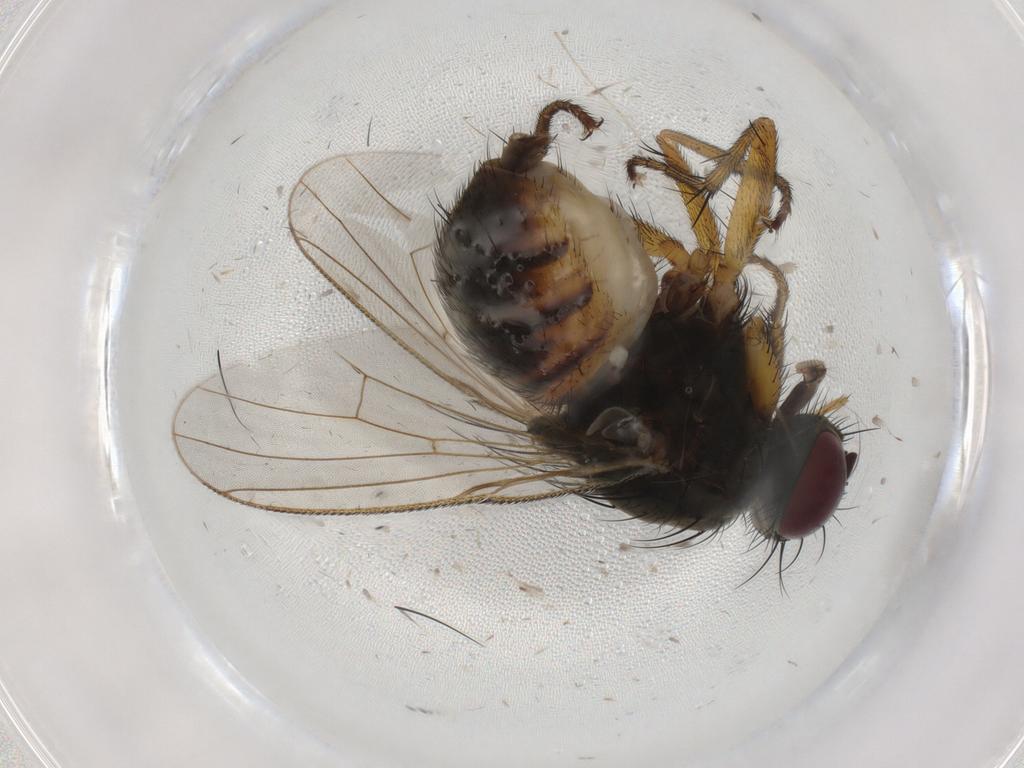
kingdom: Animalia
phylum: Arthropoda
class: Insecta
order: Diptera
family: Muscidae
